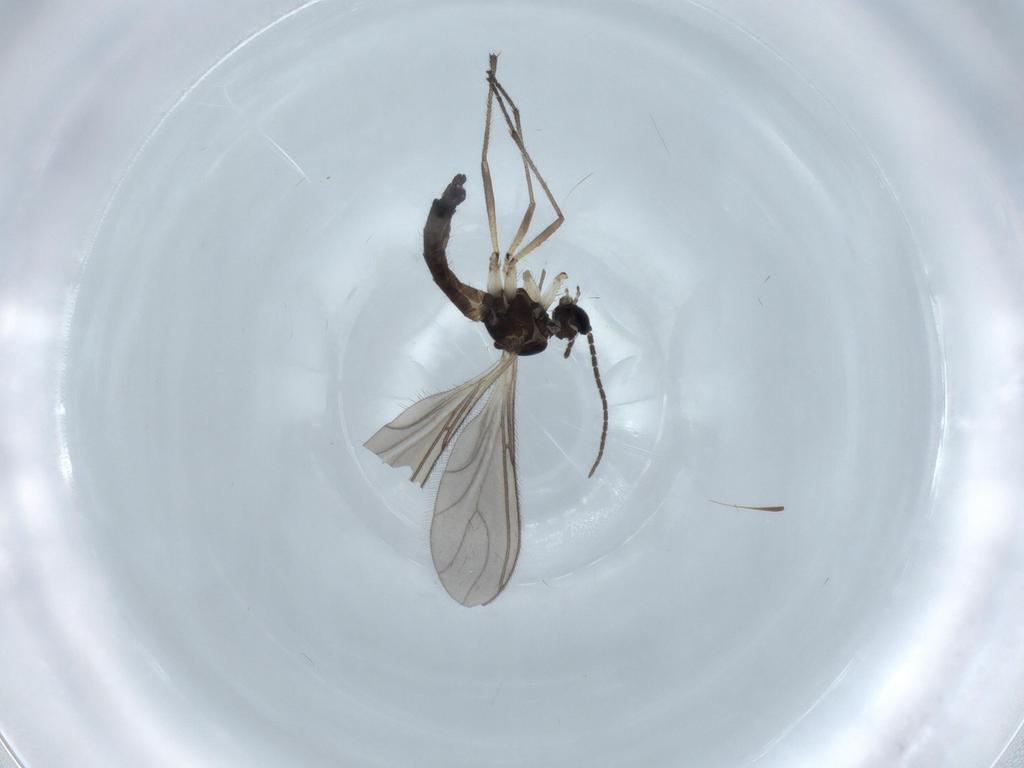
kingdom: Animalia
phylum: Arthropoda
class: Insecta
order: Diptera
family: Sciaridae
